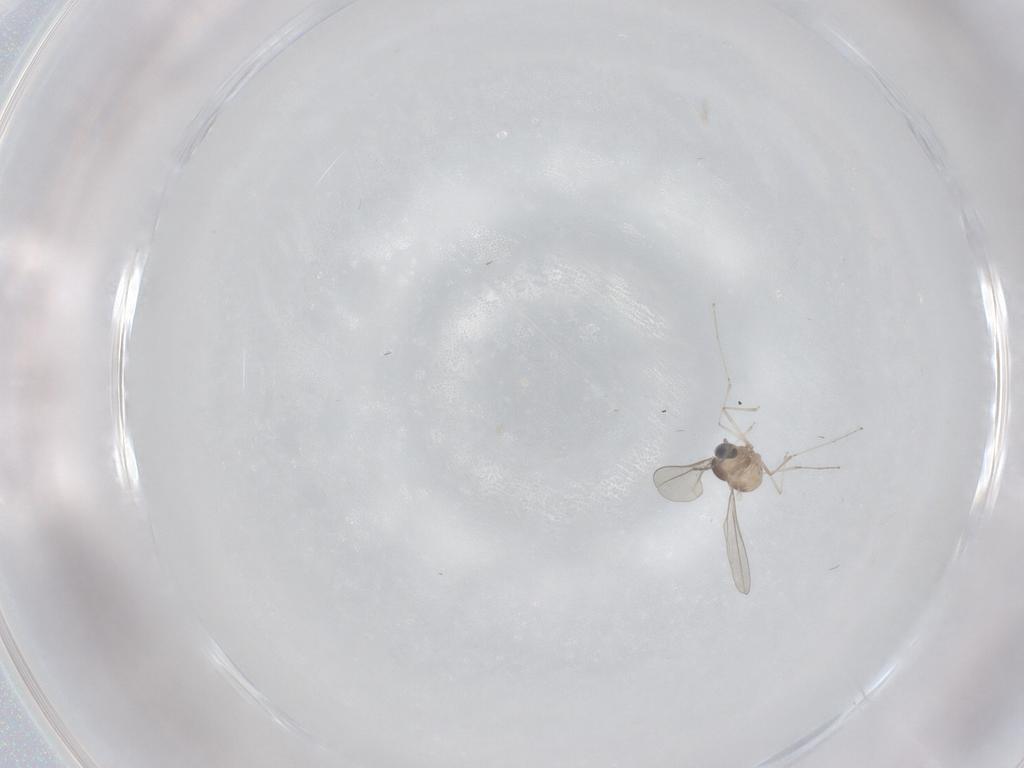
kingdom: Animalia
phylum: Arthropoda
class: Insecta
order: Diptera
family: Cecidomyiidae
